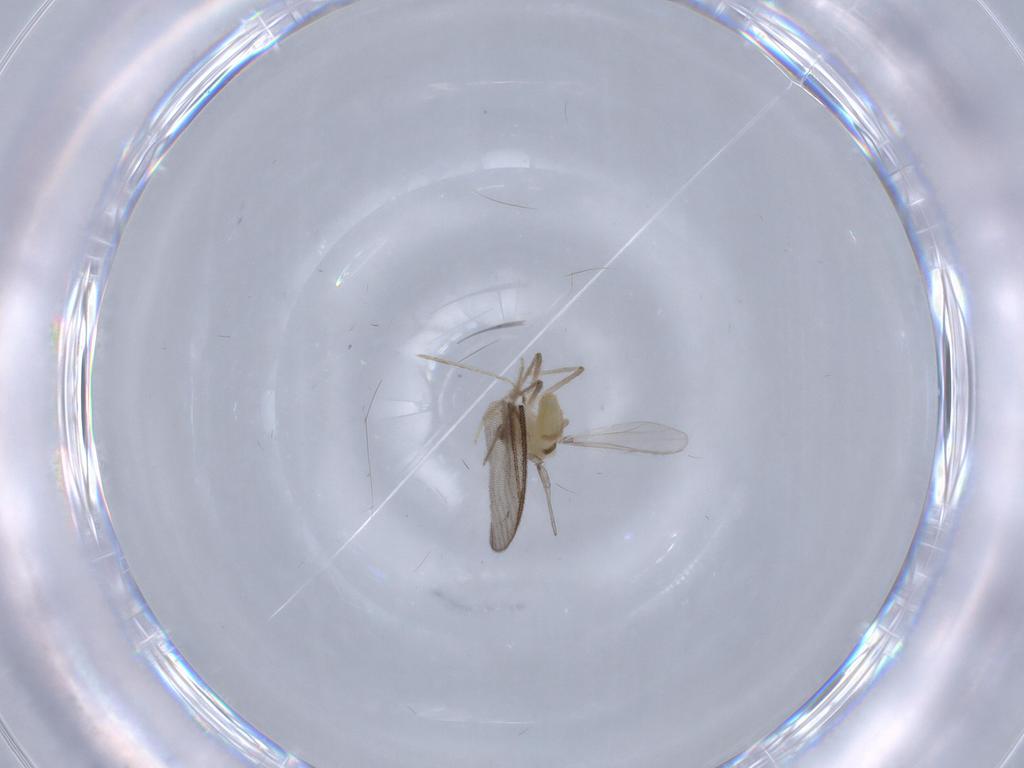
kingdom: Animalia
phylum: Arthropoda
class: Insecta
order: Diptera
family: Chironomidae
